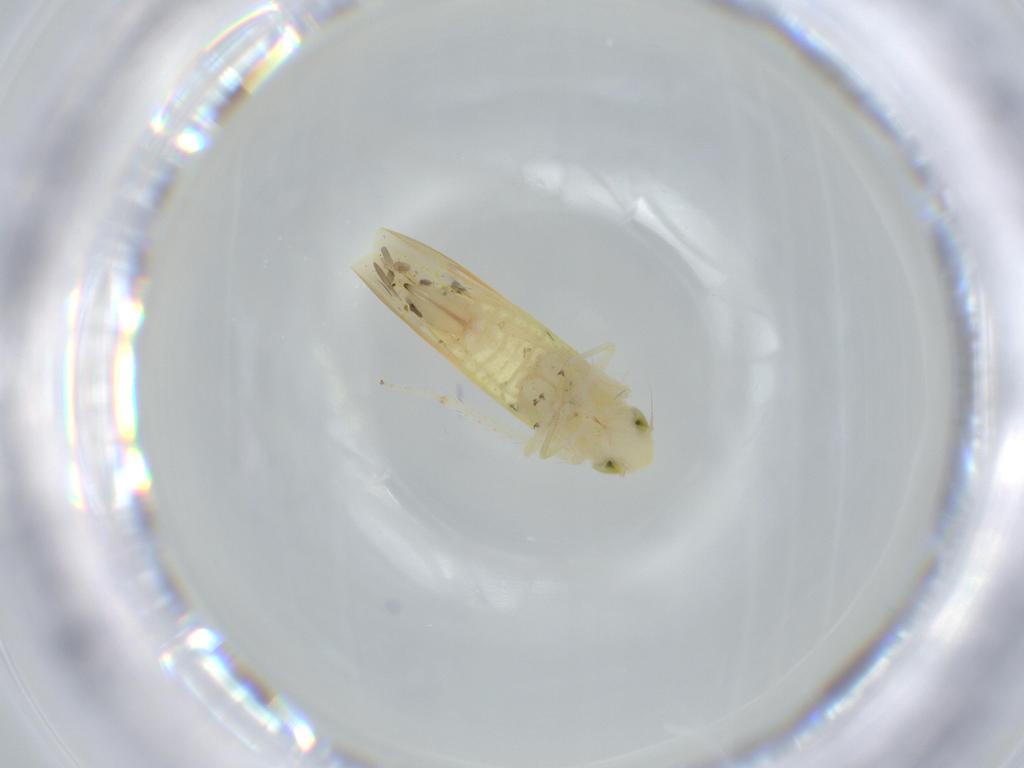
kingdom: Animalia
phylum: Arthropoda
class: Insecta
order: Hemiptera
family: Cicadellidae
